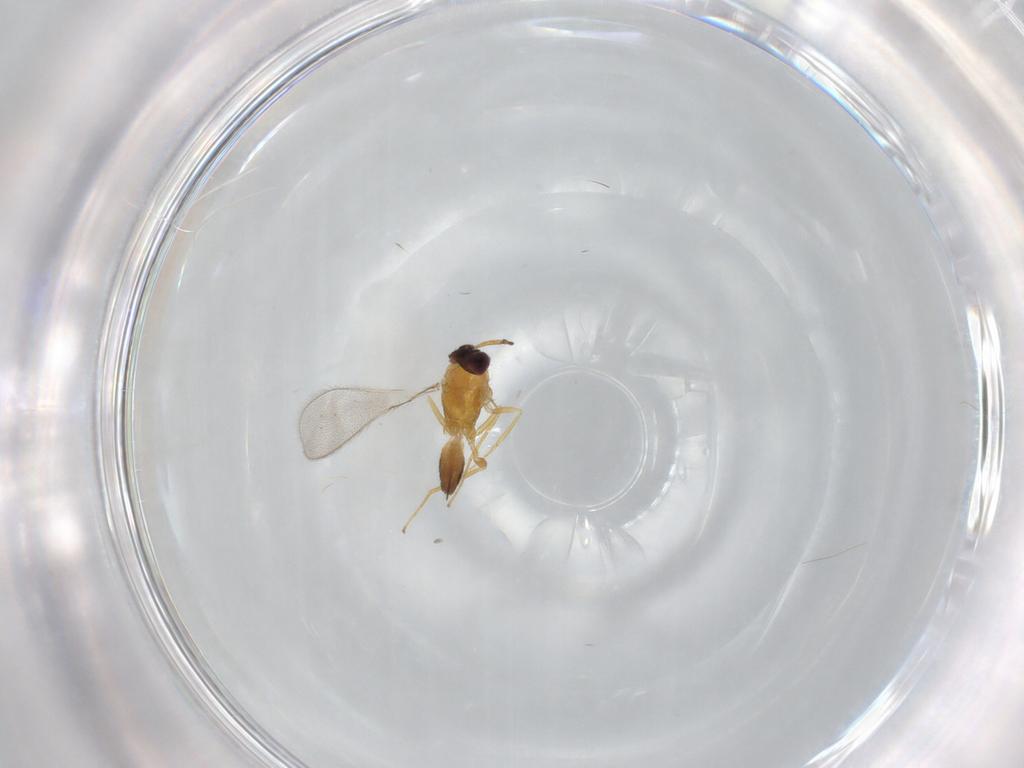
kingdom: Animalia
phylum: Arthropoda
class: Insecta
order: Hymenoptera
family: Mymaridae
